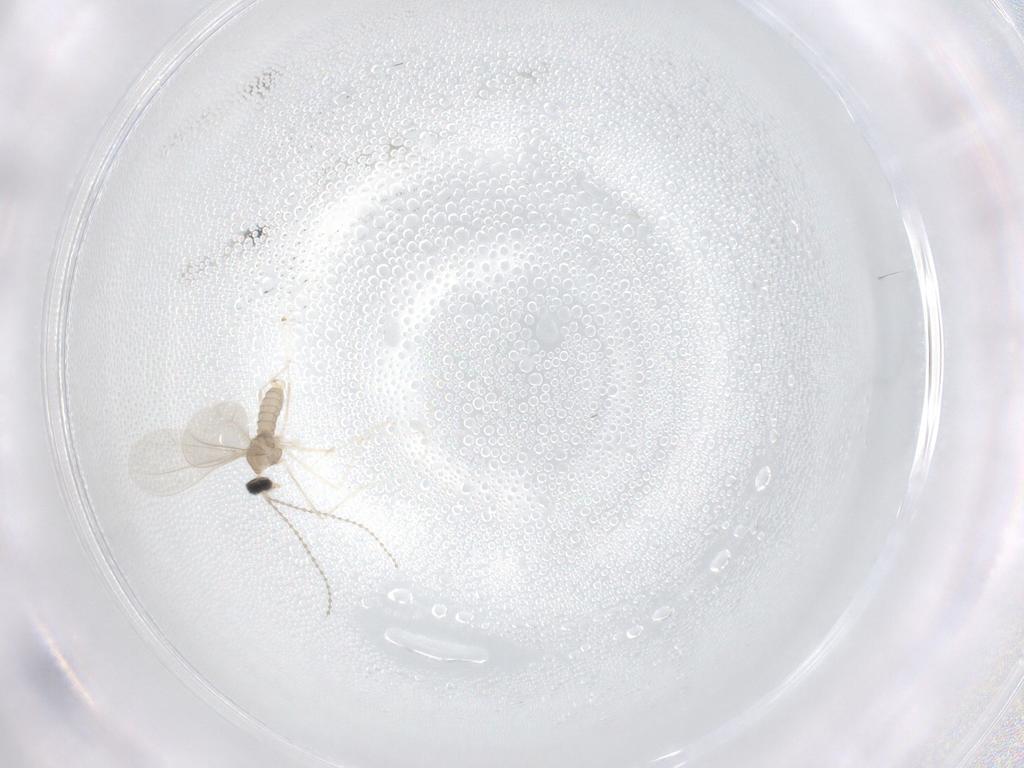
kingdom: Animalia
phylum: Arthropoda
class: Insecta
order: Diptera
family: Cecidomyiidae
